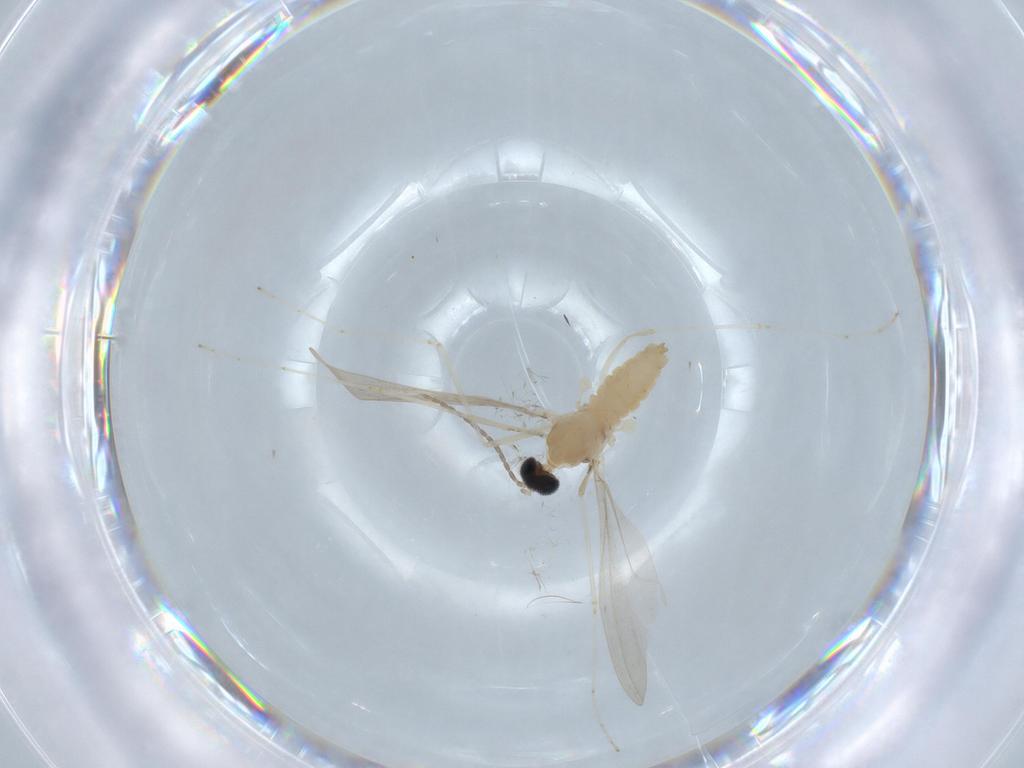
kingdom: Animalia
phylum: Arthropoda
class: Insecta
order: Diptera
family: Cecidomyiidae
